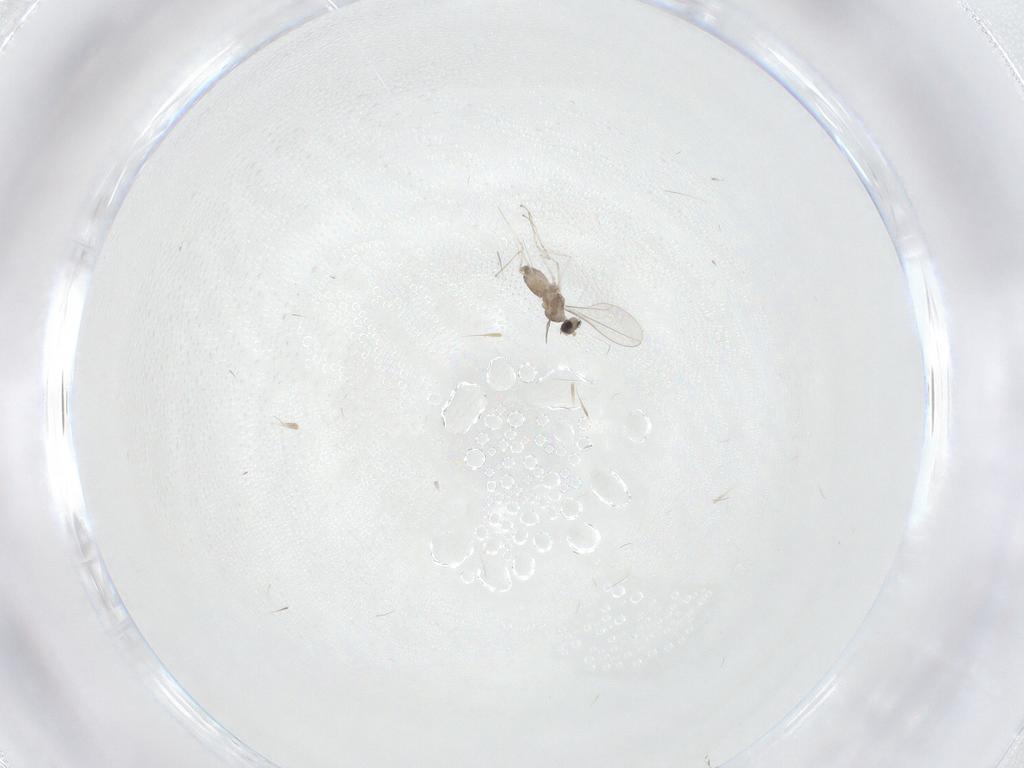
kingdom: Animalia
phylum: Arthropoda
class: Insecta
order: Diptera
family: Cecidomyiidae
